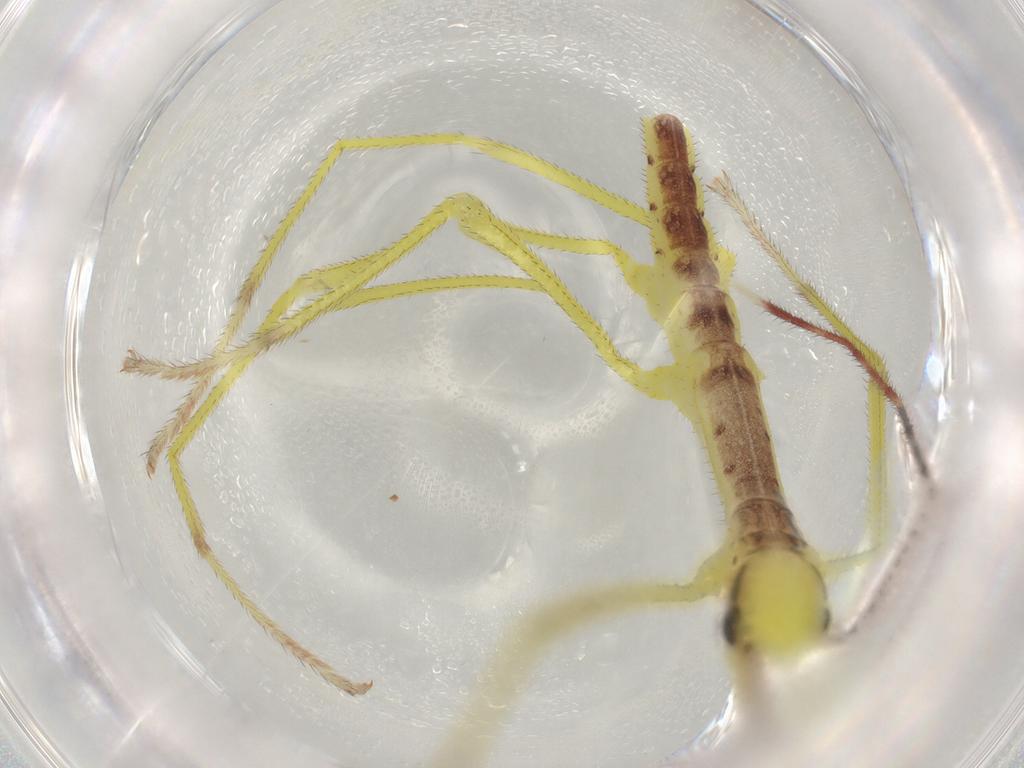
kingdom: Animalia
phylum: Arthropoda
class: Insecta
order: Phasmida
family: Agathemeridae
